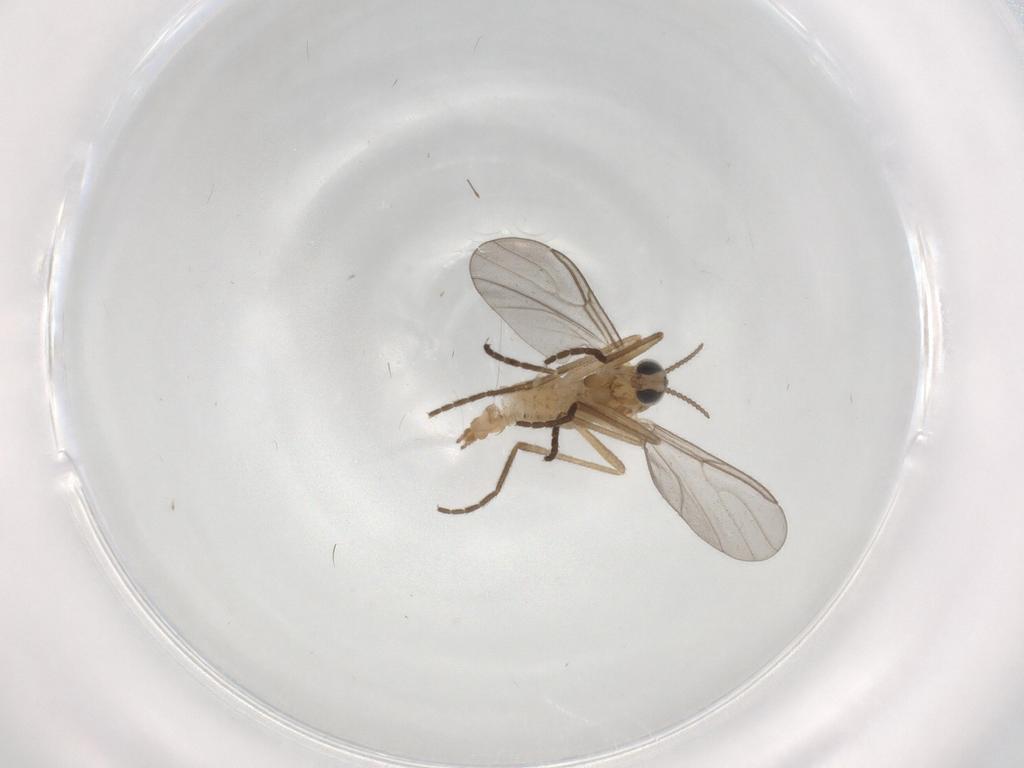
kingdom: Animalia
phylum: Arthropoda
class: Insecta
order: Diptera
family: Cecidomyiidae
